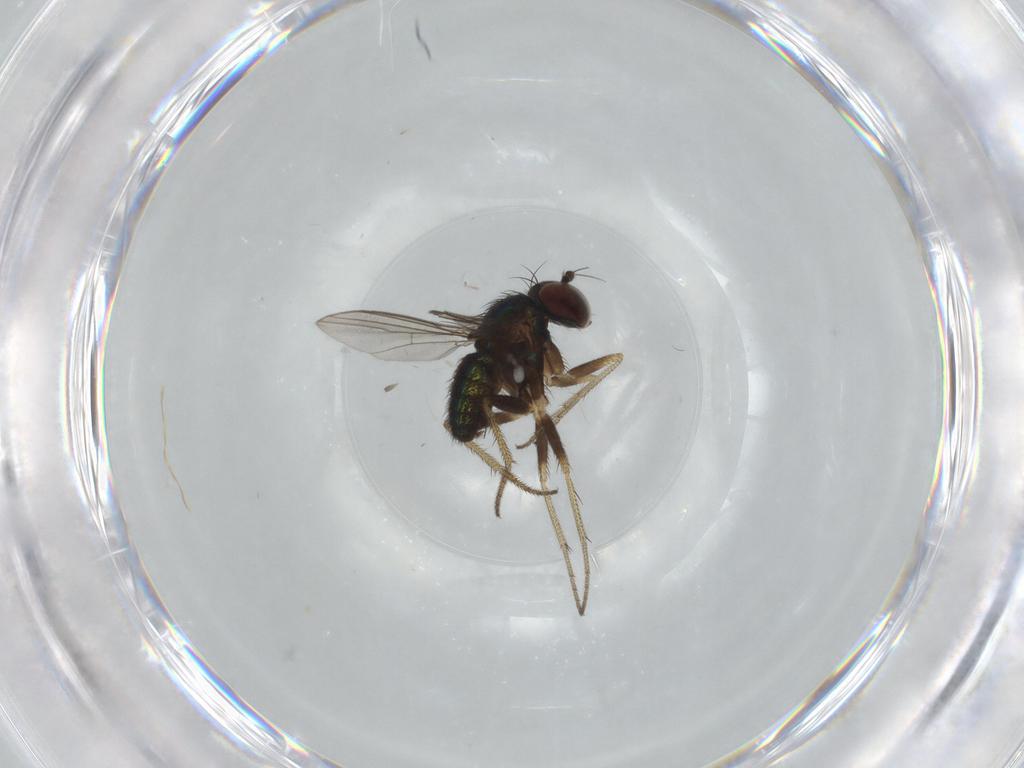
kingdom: Animalia
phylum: Arthropoda
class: Insecta
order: Diptera
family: Dolichopodidae
